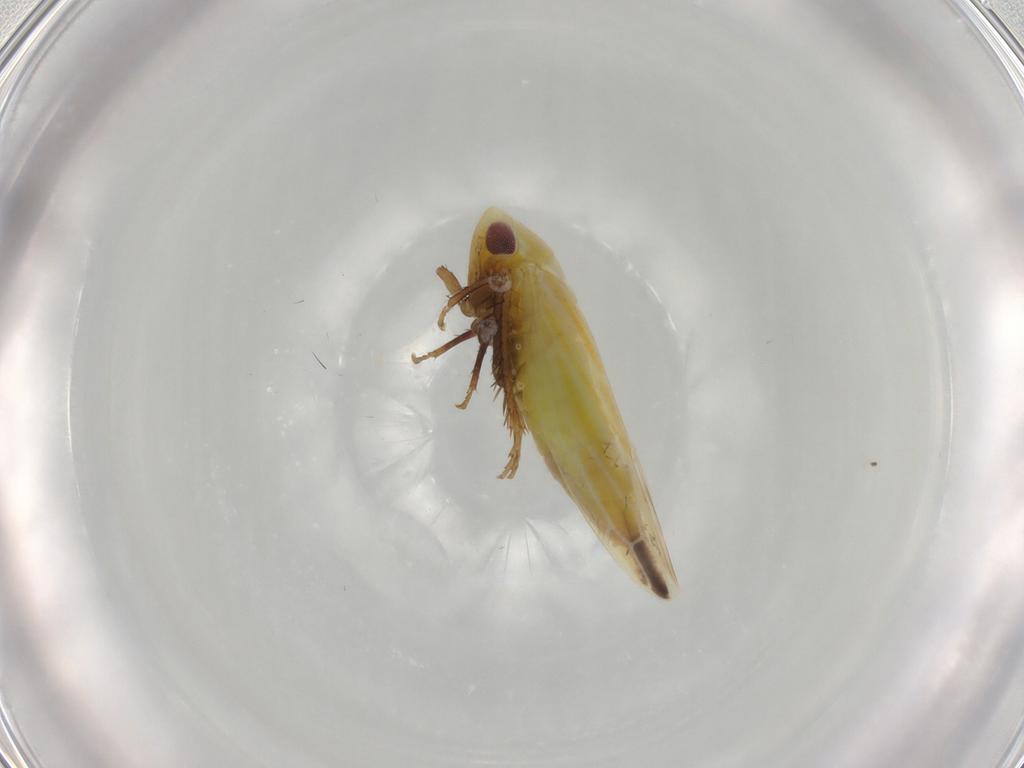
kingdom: Animalia
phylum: Arthropoda
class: Insecta
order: Hemiptera
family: Cicadellidae
